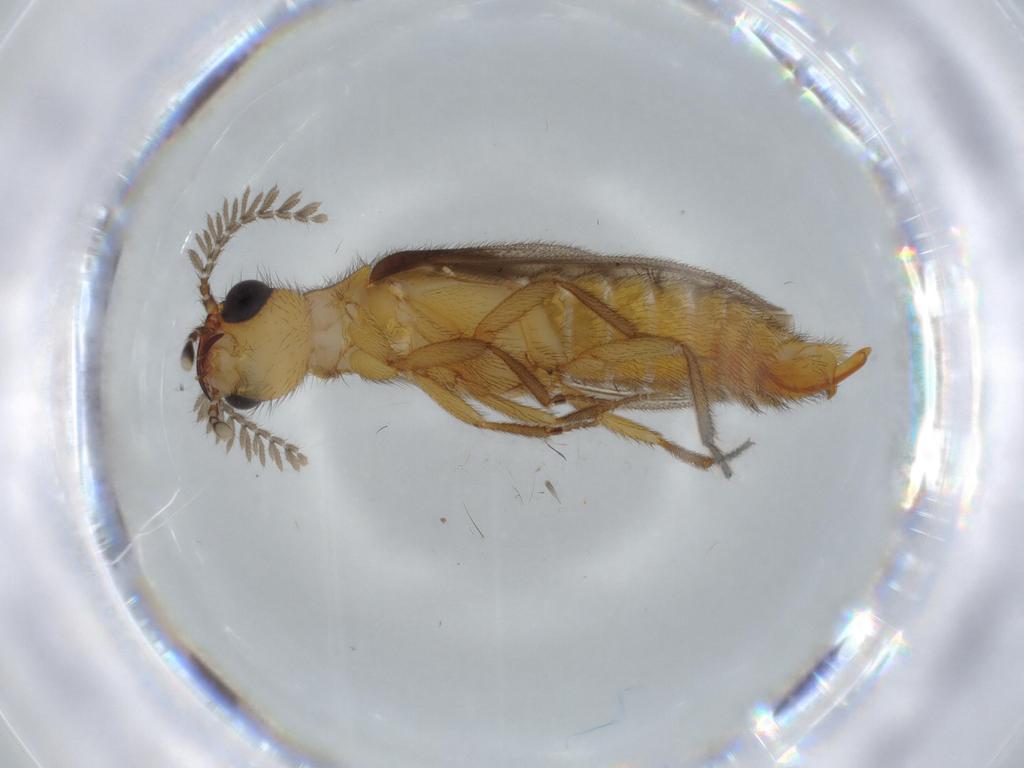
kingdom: Animalia
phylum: Arthropoda
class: Insecta
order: Coleoptera
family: Phengodidae
